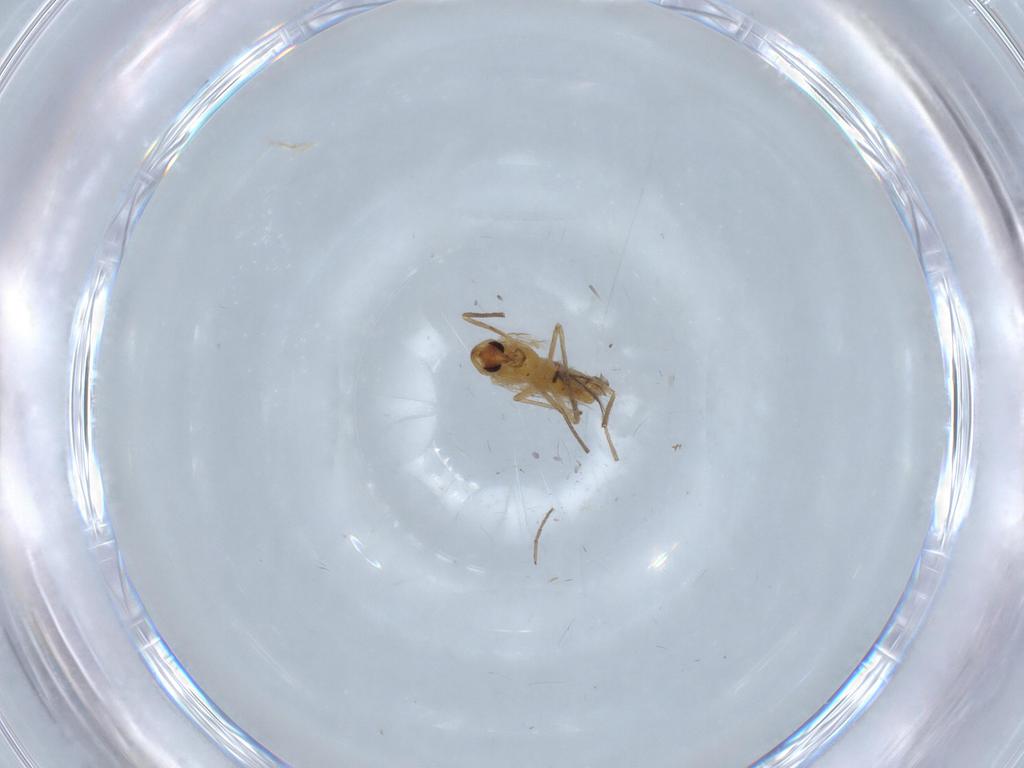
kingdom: Animalia
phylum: Arthropoda
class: Insecta
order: Diptera
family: Chironomidae
